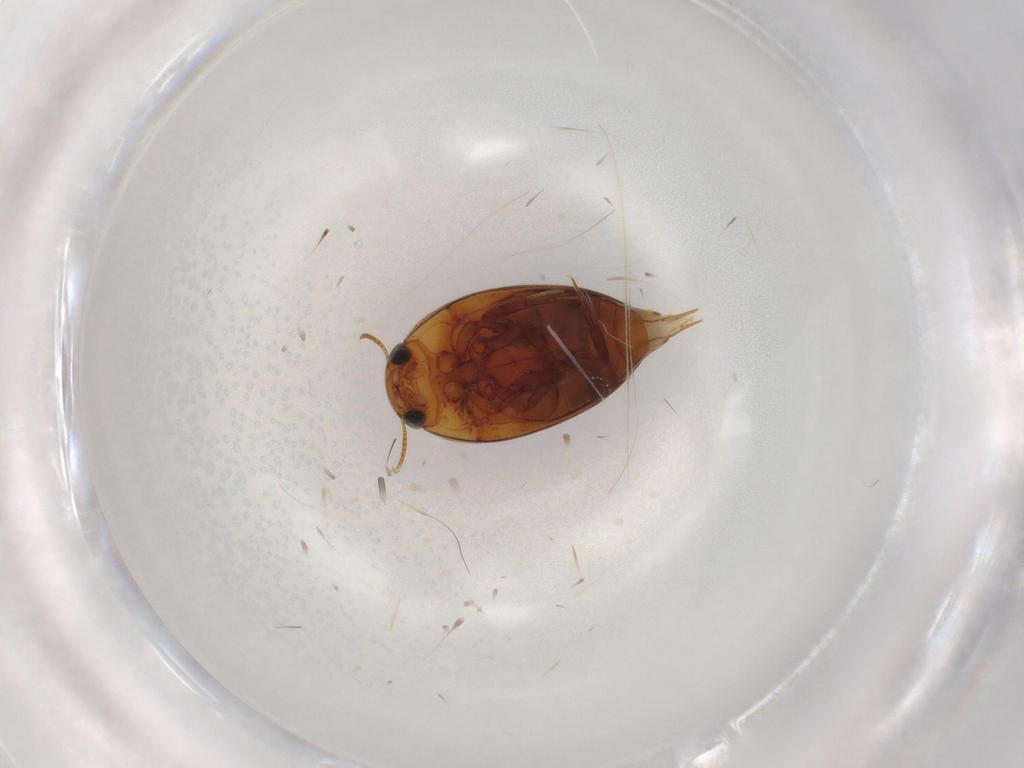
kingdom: Animalia
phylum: Arthropoda
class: Insecta
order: Coleoptera
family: Noteridae
